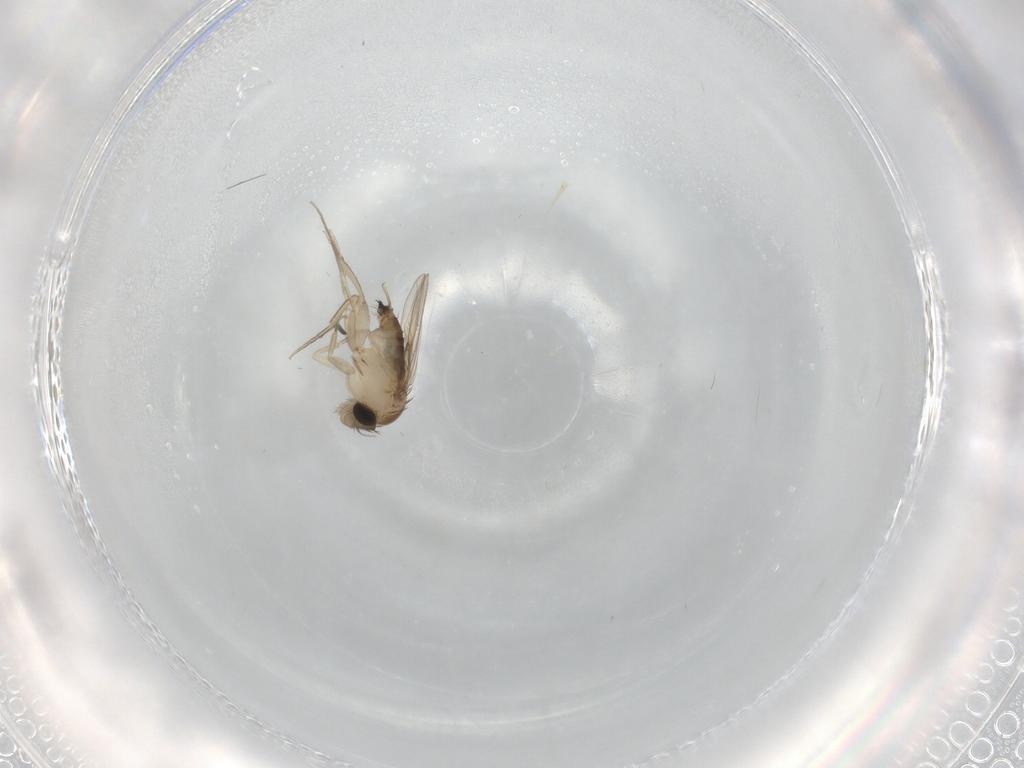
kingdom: Animalia
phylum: Arthropoda
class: Insecta
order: Diptera
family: Phoridae
